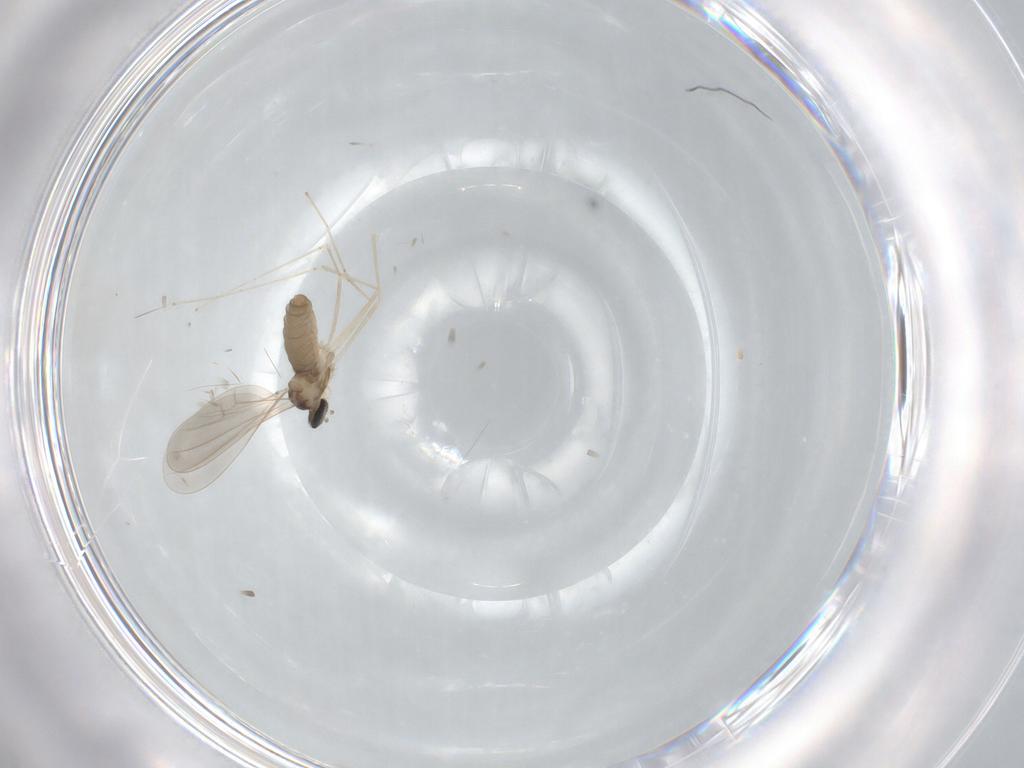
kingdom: Animalia
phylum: Arthropoda
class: Insecta
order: Diptera
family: Cecidomyiidae
